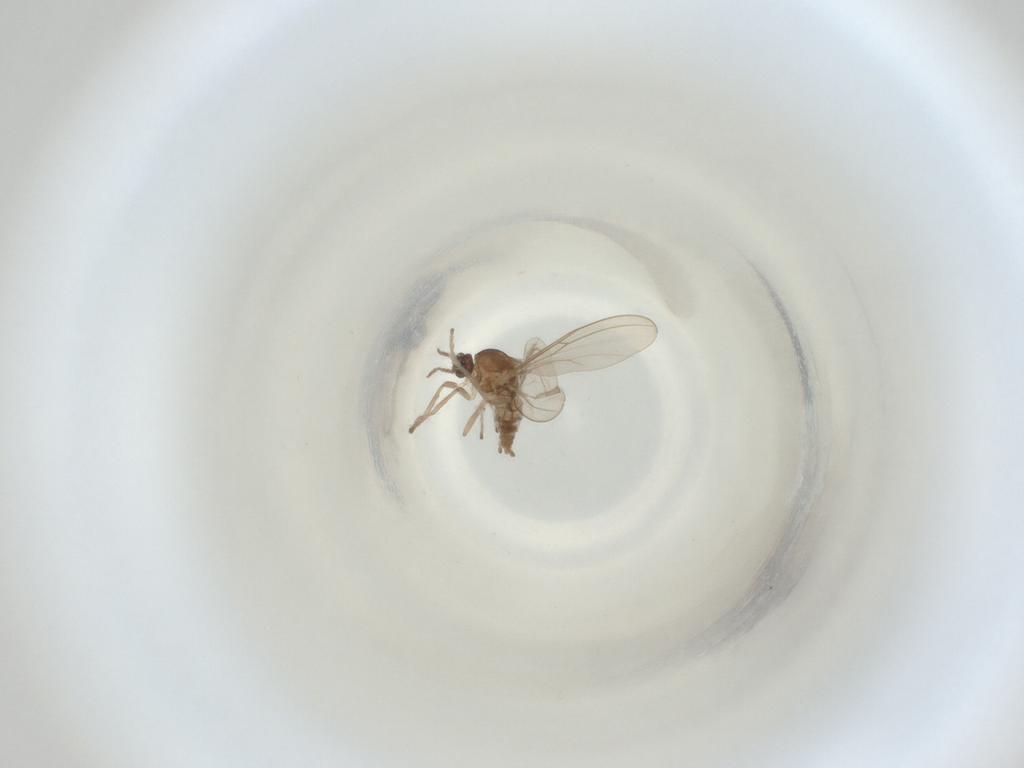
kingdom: Animalia
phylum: Arthropoda
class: Insecta
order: Diptera
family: Cecidomyiidae
